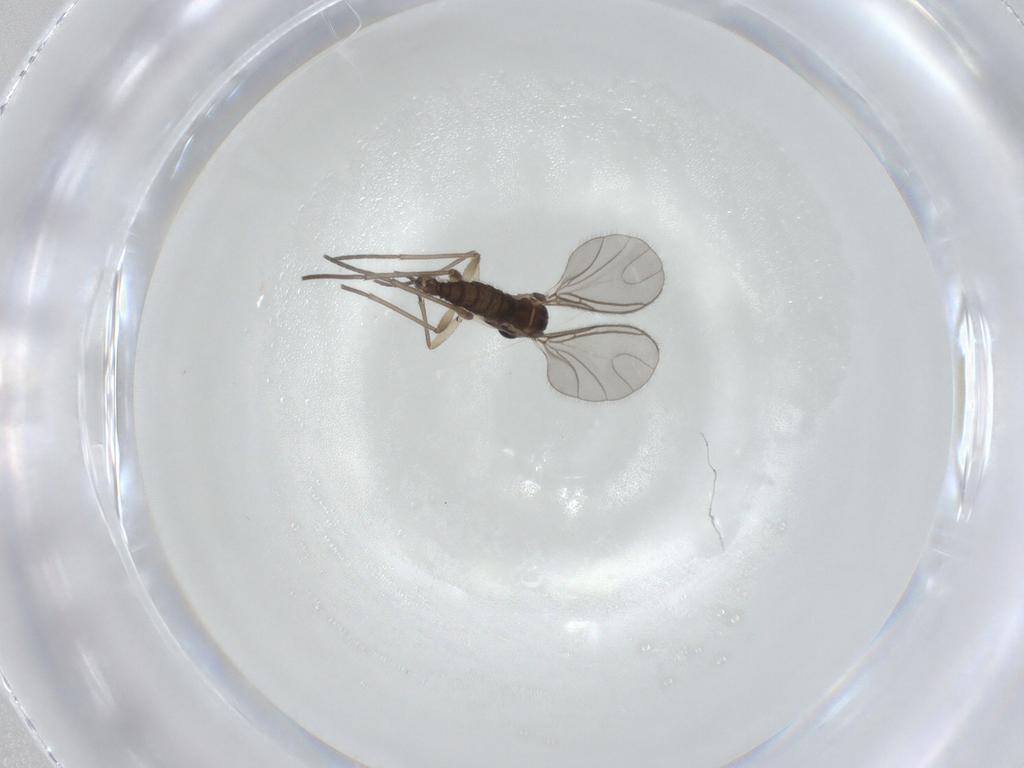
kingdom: Animalia
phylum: Arthropoda
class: Insecta
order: Diptera
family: Sciaridae
